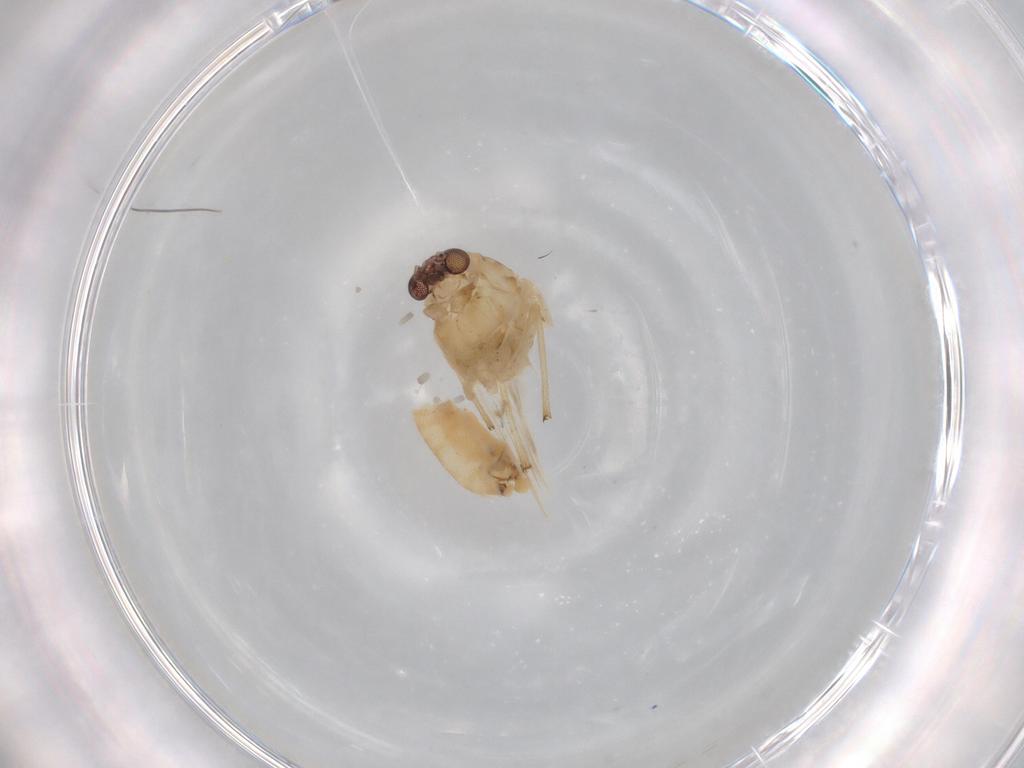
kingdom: Animalia
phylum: Arthropoda
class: Insecta
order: Diptera
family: Chironomidae
